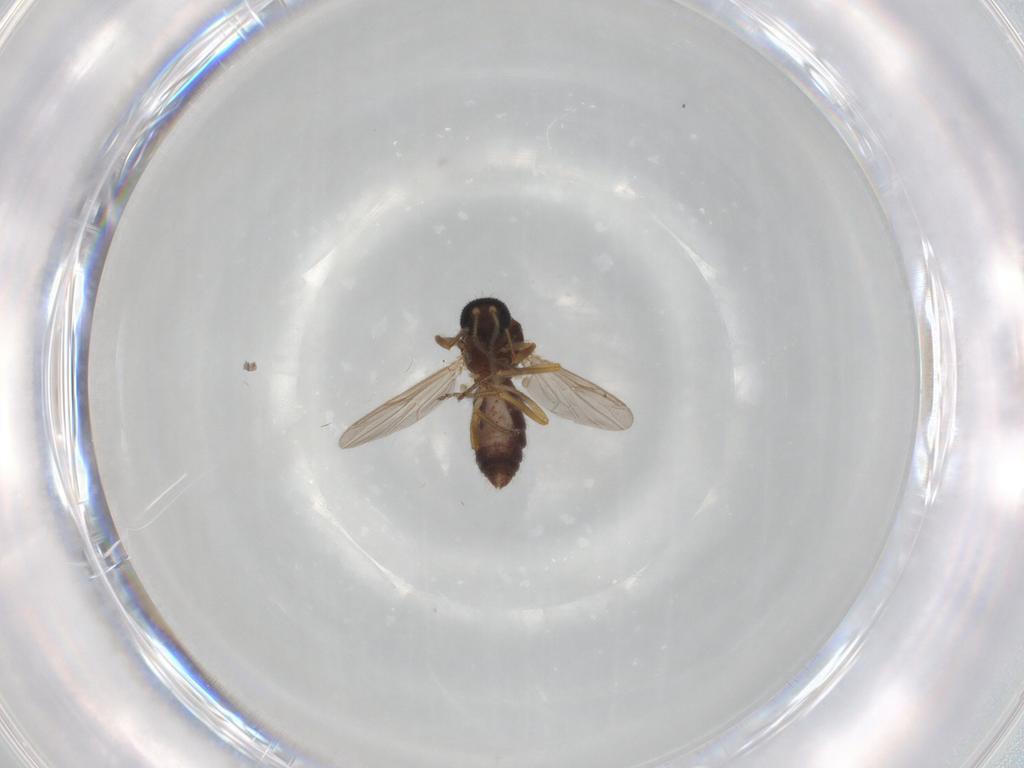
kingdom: Animalia
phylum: Arthropoda
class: Insecta
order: Diptera
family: Ceratopogonidae
